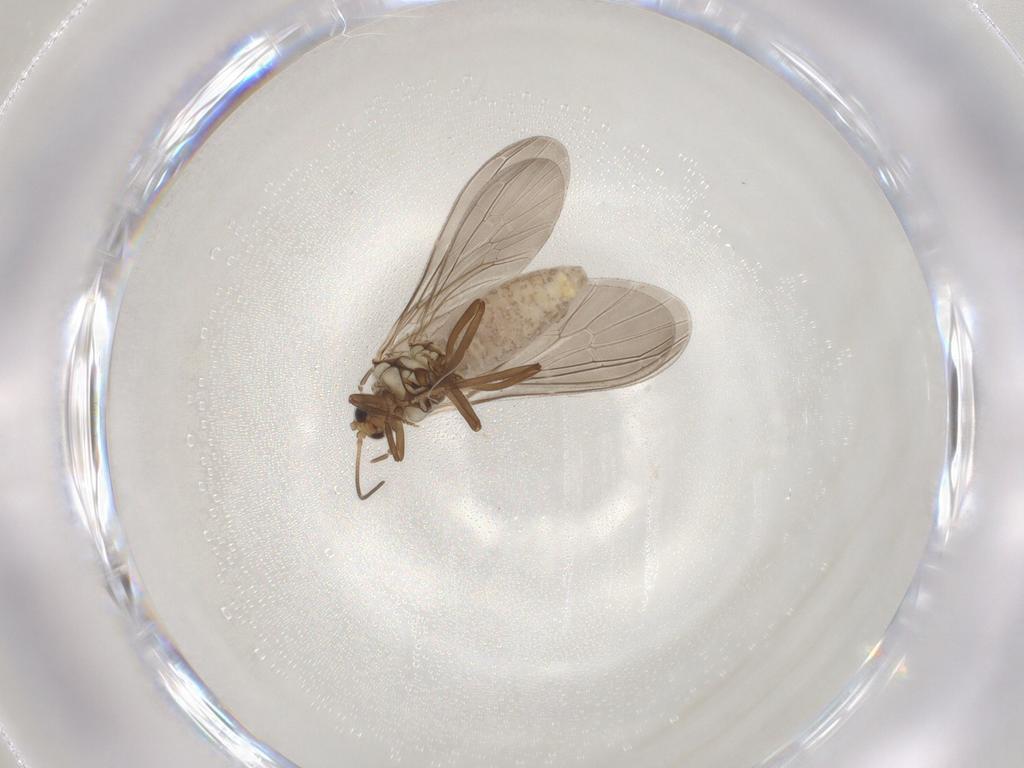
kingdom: Animalia
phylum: Arthropoda
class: Insecta
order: Neuroptera
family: Coniopterygidae
